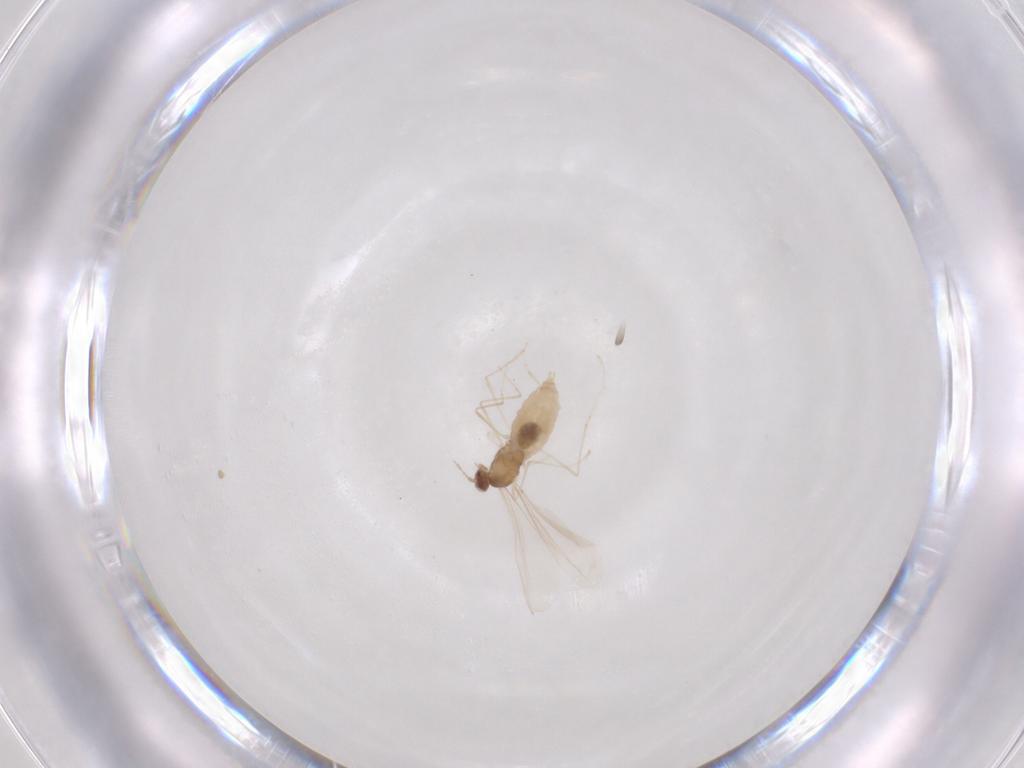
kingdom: Animalia
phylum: Arthropoda
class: Insecta
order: Diptera
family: Cecidomyiidae
